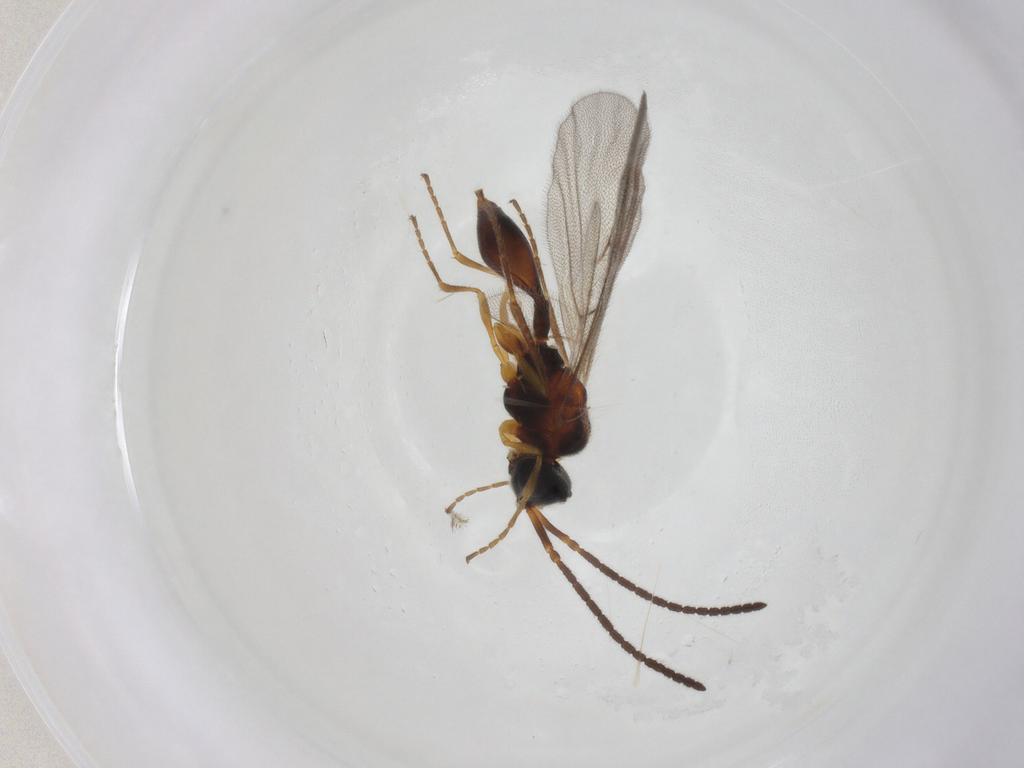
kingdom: Animalia
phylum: Arthropoda
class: Insecta
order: Hymenoptera
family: Diapriidae
